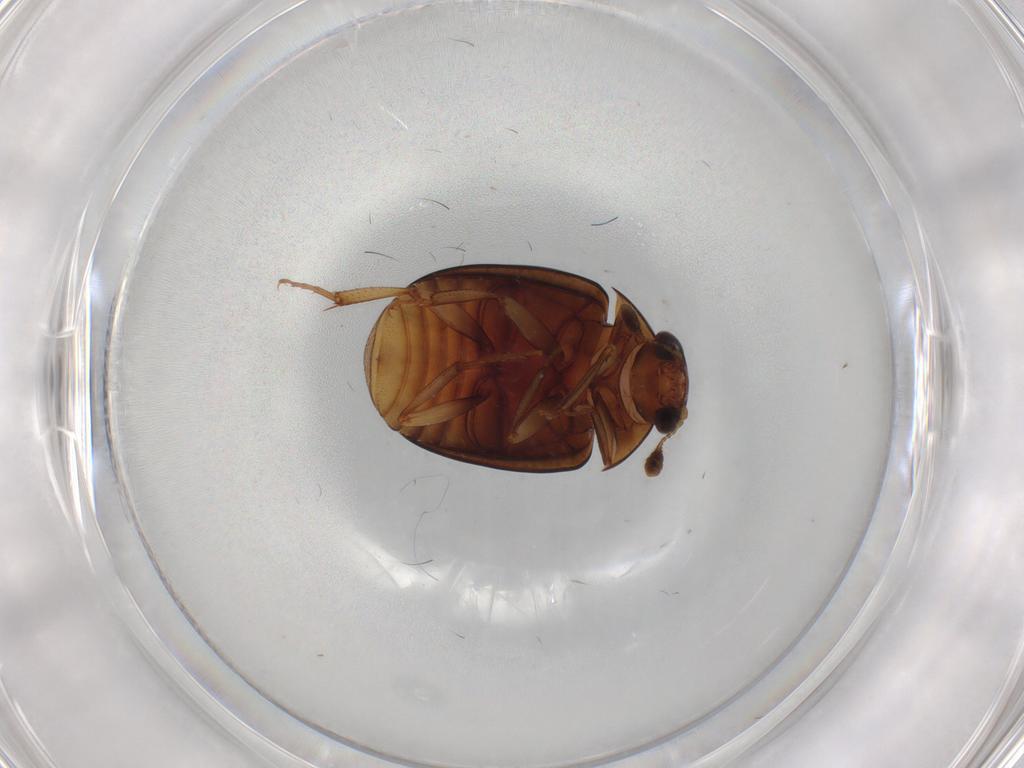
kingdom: Animalia
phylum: Arthropoda
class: Insecta
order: Coleoptera
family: Nitidulidae
